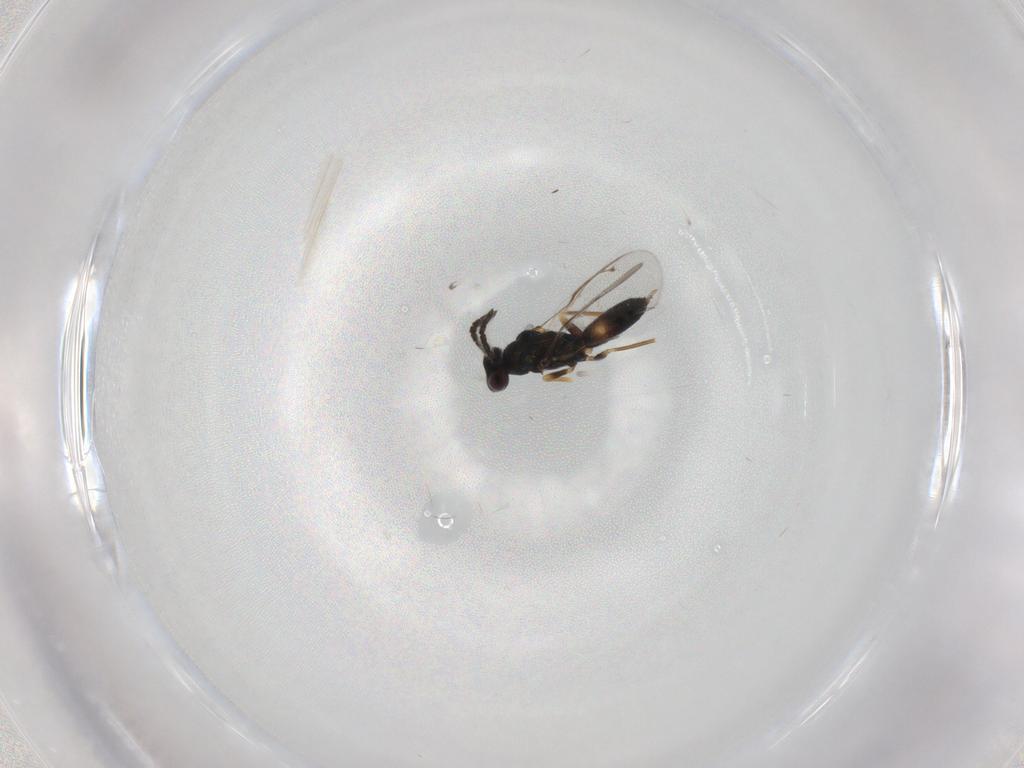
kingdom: Animalia
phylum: Arthropoda
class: Insecta
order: Hymenoptera
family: Eulophidae
